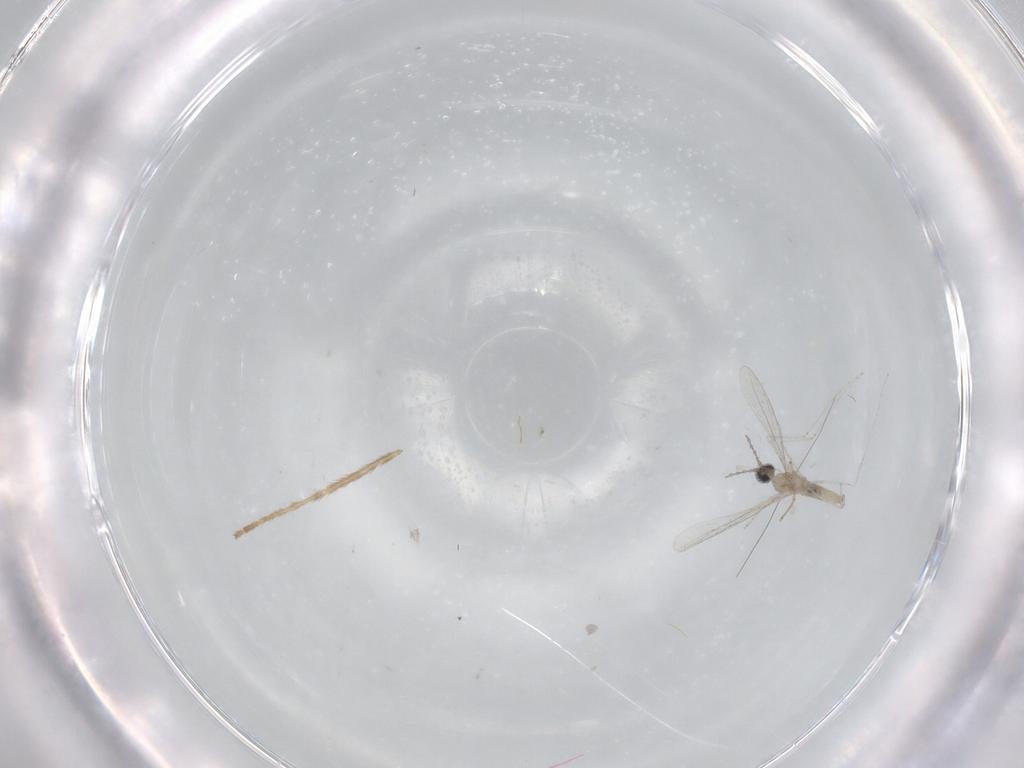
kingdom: Animalia
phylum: Arthropoda
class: Insecta
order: Diptera
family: Cecidomyiidae
